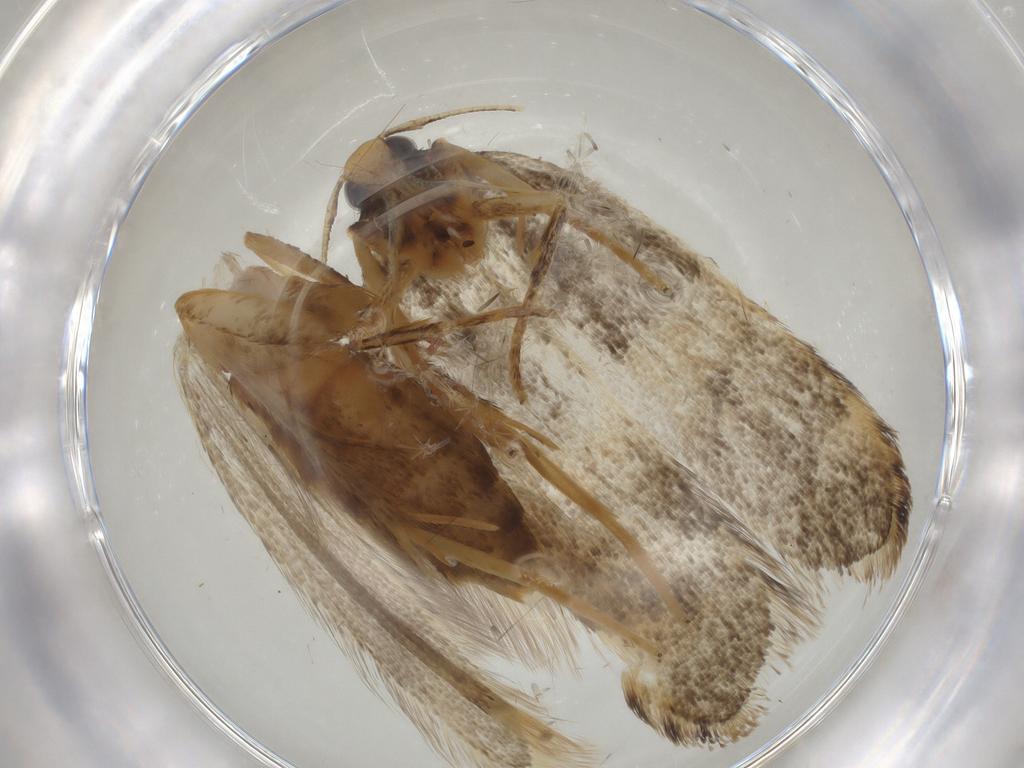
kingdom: Animalia
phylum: Arthropoda
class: Insecta
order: Lepidoptera
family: Lecithoceridae
